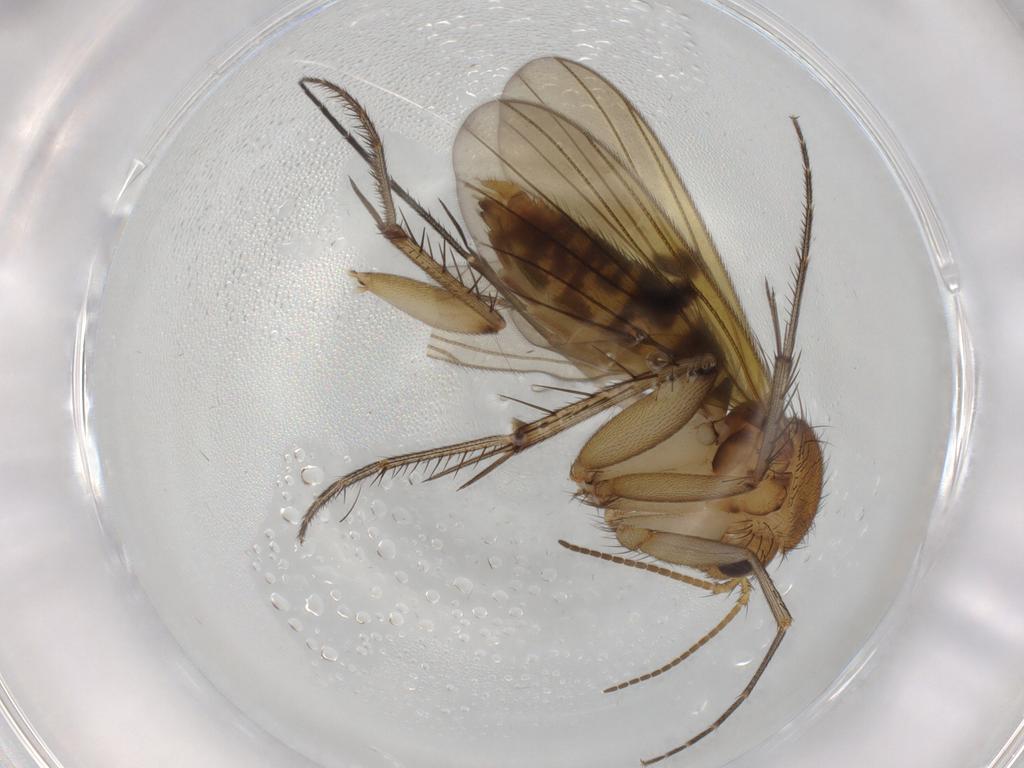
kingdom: Animalia
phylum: Arthropoda
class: Insecta
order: Diptera
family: Mycetophilidae
